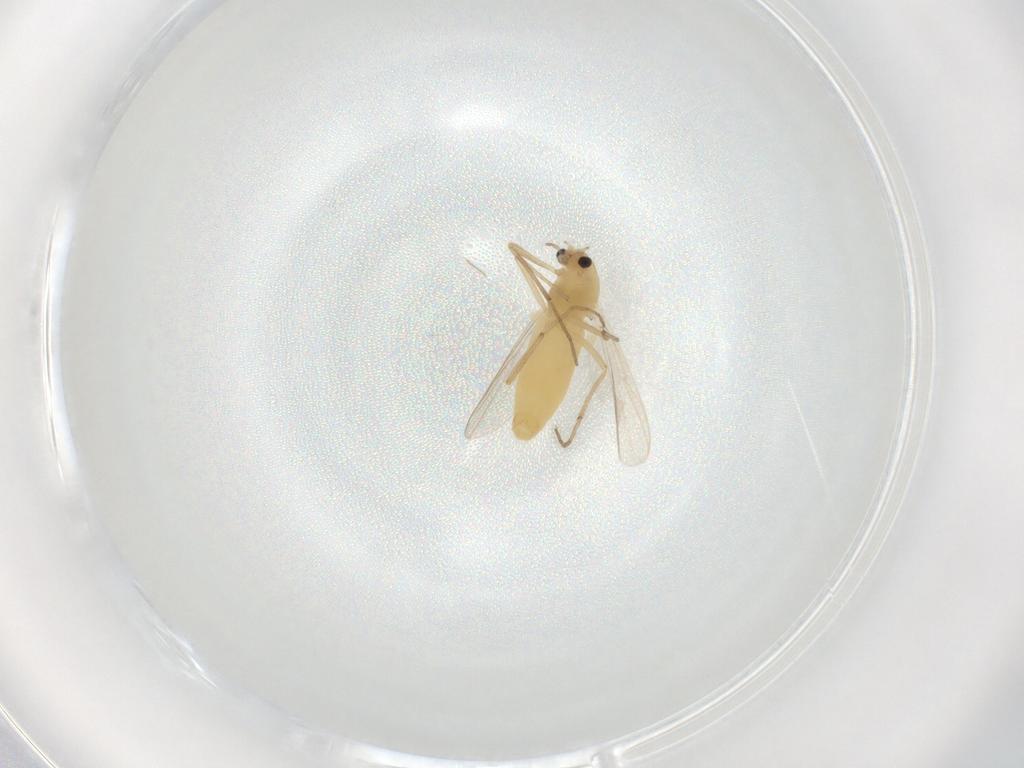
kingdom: Animalia
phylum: Arthropoda
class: Insecta
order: Diptera
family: Chironomidae
